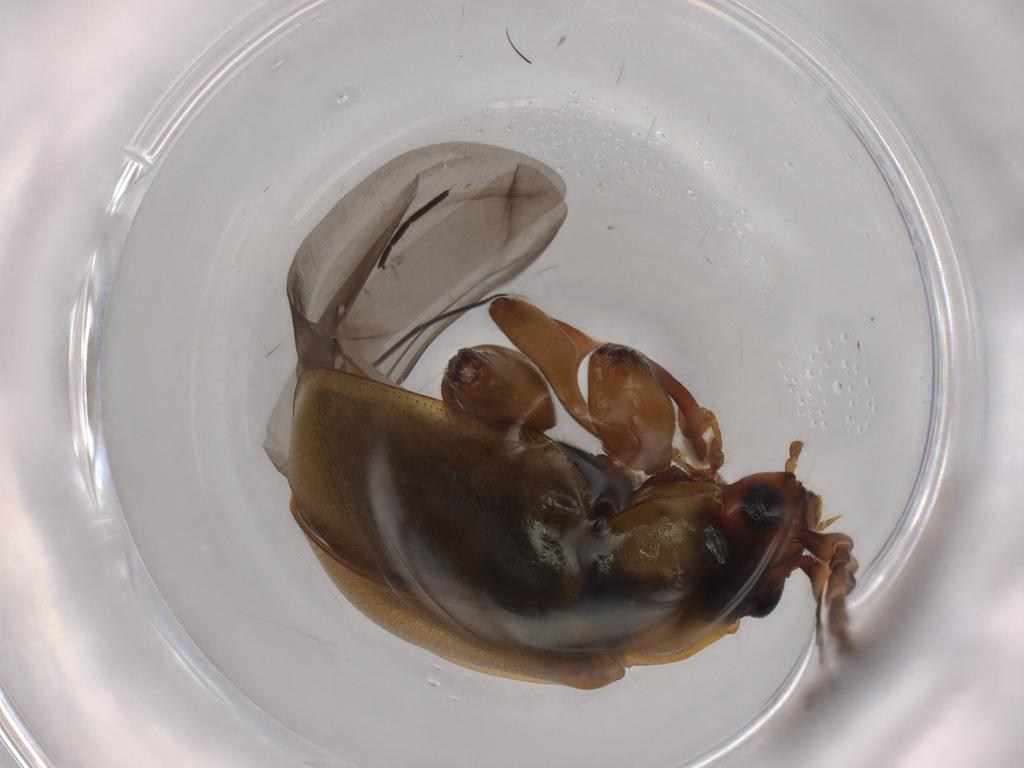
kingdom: Animalia
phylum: Arthropoda
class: Insecta
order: Coleoptera
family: Chrysomelidae
